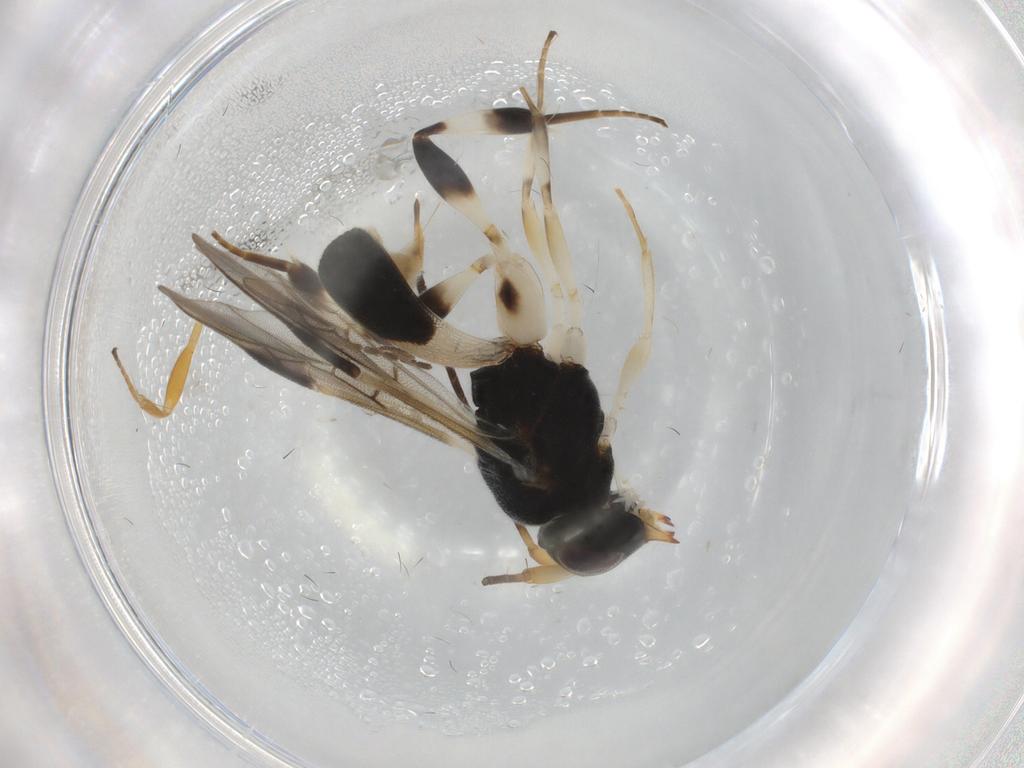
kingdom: Animalia
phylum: Arthropoda
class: Insecta
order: Hymenoptera
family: Braconidae
